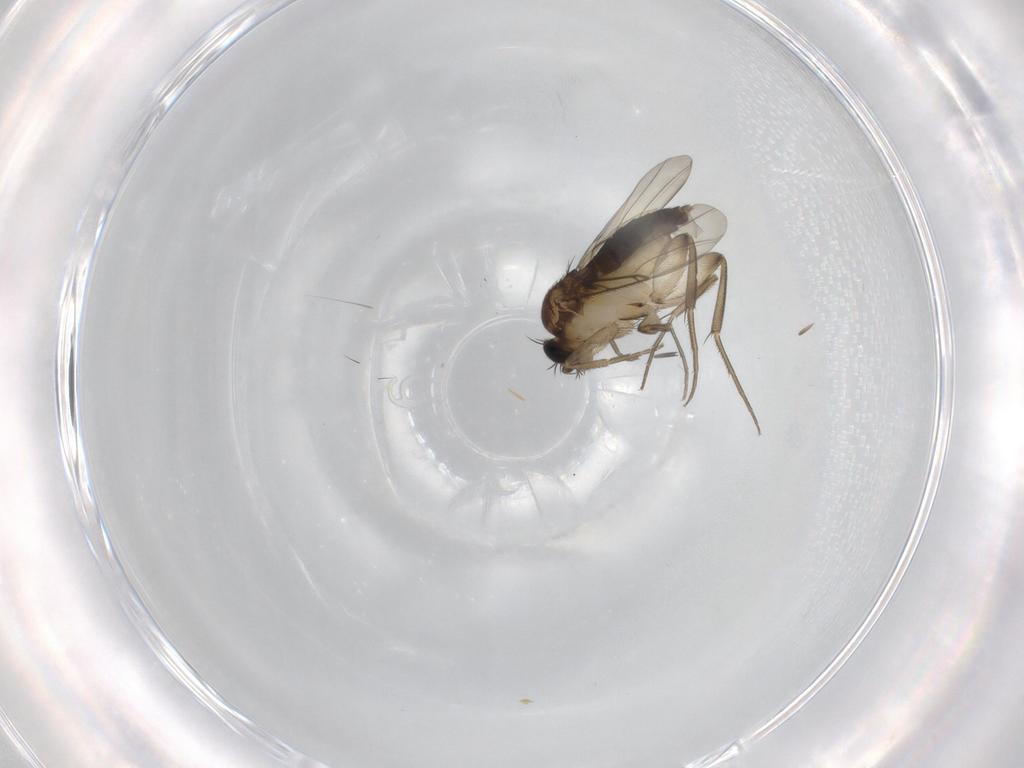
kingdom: Animalia
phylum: Arthropoda
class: Insecta
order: Diptera
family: Phoridae
